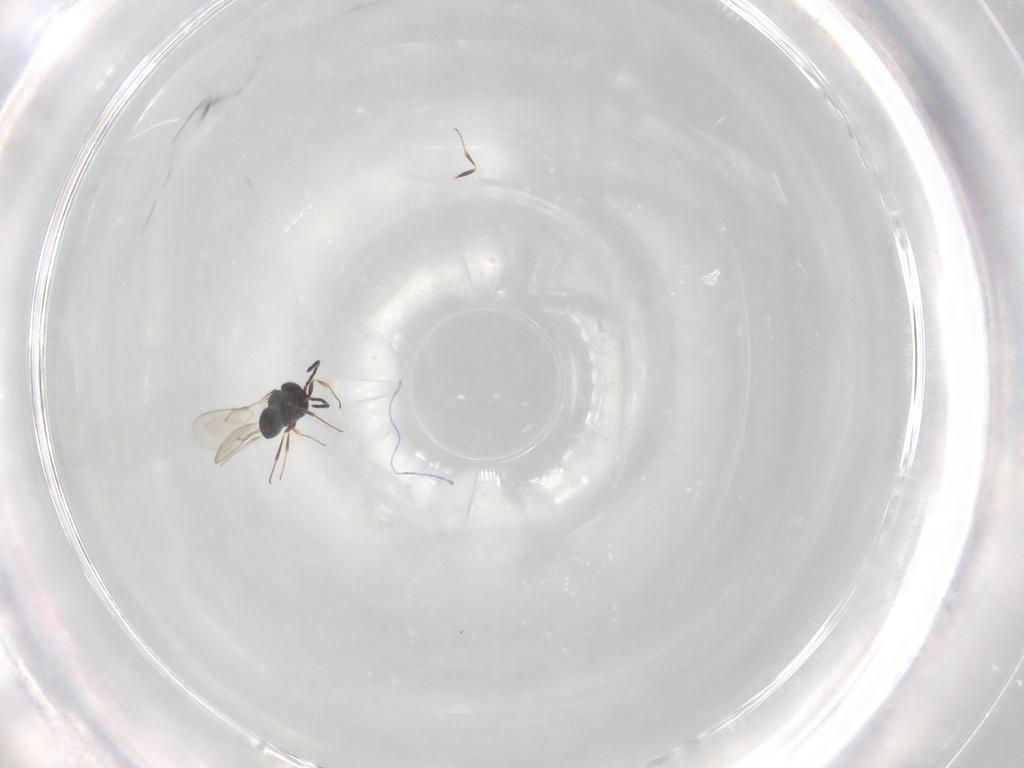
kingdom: Animalia
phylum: Arthropoda
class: Insecta
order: Hymenoptera
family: Scelionidae
